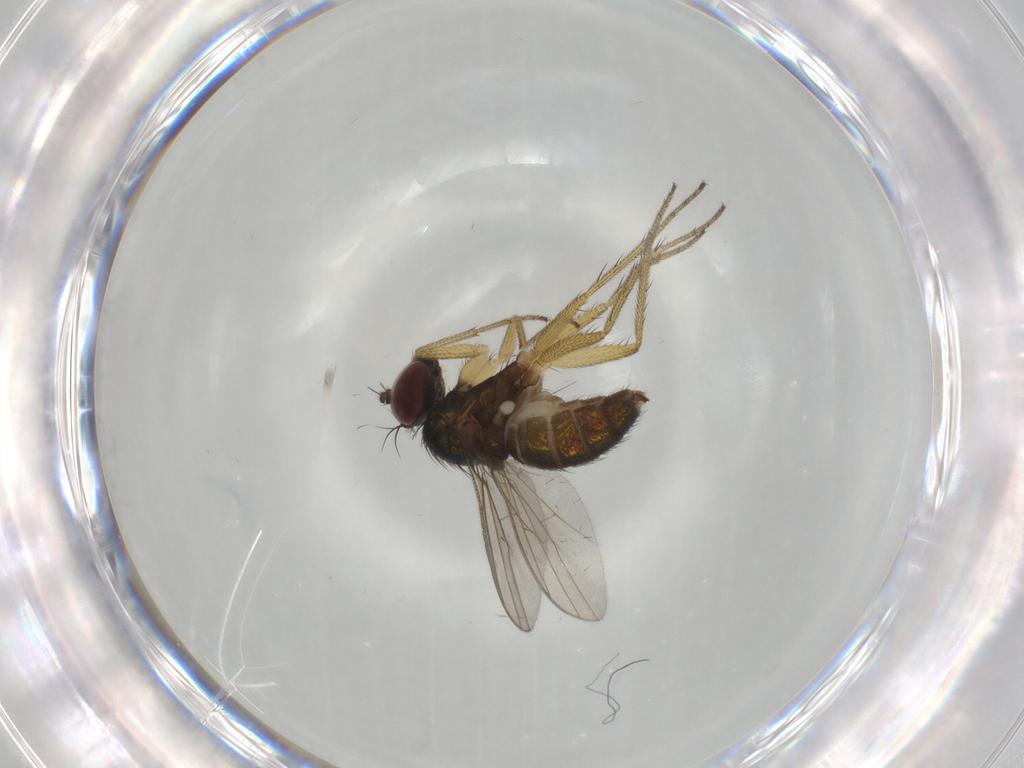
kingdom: Animalia
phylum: Arthropoda
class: Insecta
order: Diptera
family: Dolichopodidae
